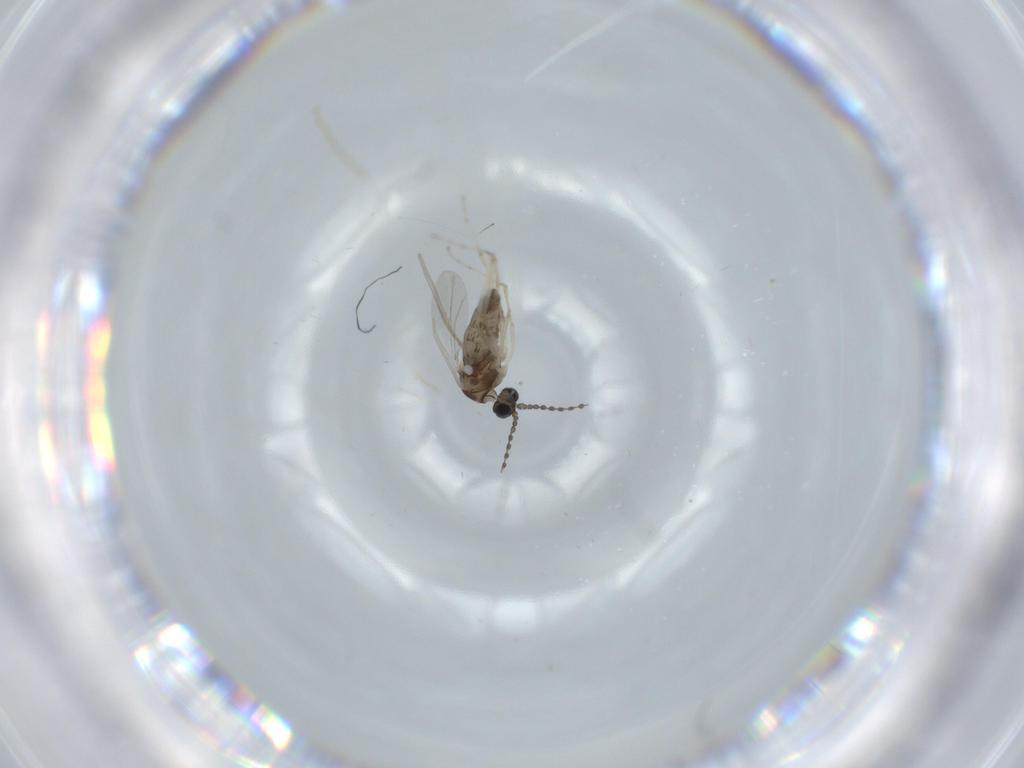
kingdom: Animalia
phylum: Arthropoda
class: Insecta
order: Diptera
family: Cecidomyiidae
